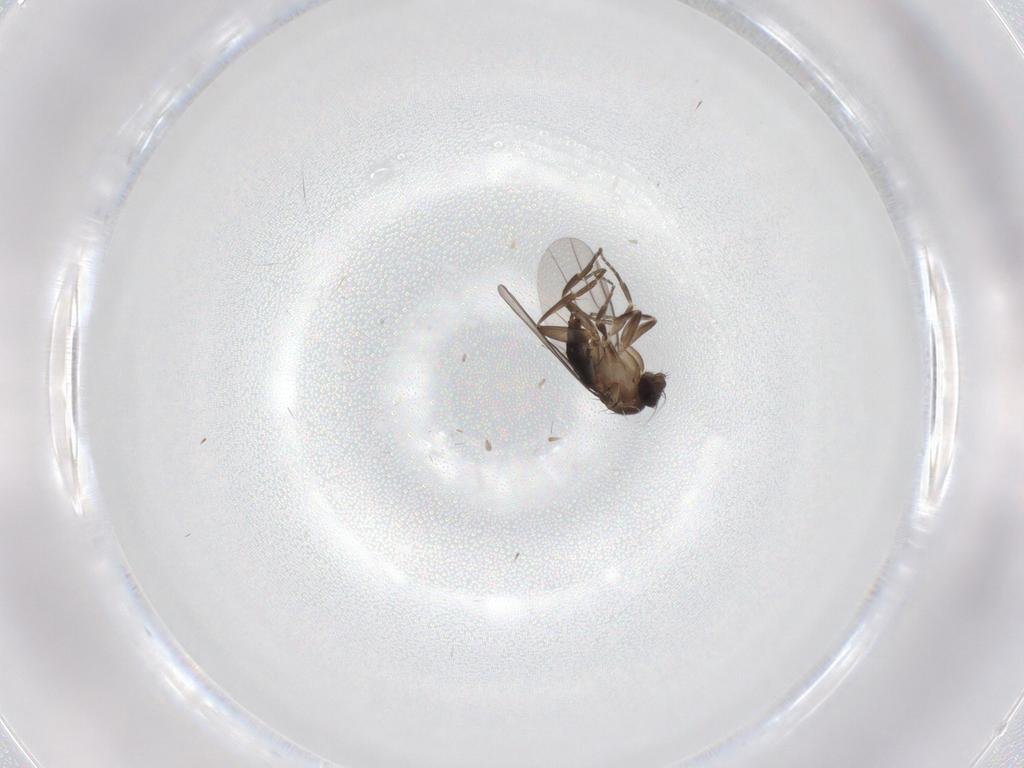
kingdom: Animalia
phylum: Arthropoda
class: Insecta
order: Diptera
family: Phoridae
